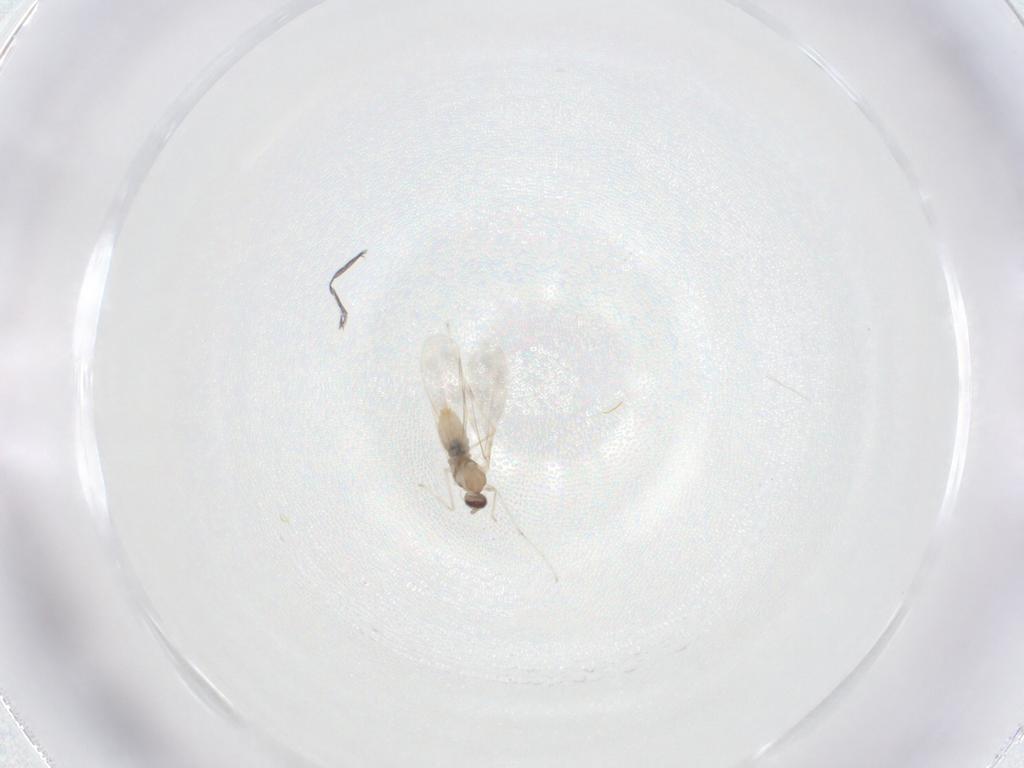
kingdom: Animalia
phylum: Arthropoda
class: Insecta
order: Diptera
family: Cecidomyiidae
